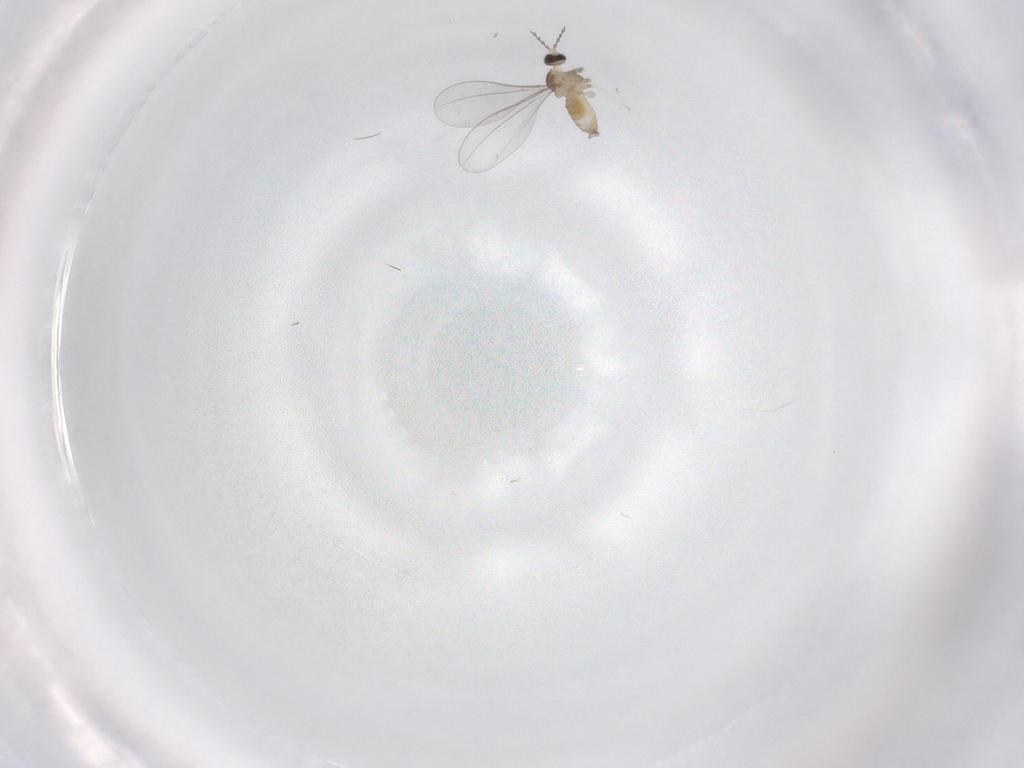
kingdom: Animalia
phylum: Arthropoda
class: Insecta
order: Diptera
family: Cecidomyiidae
